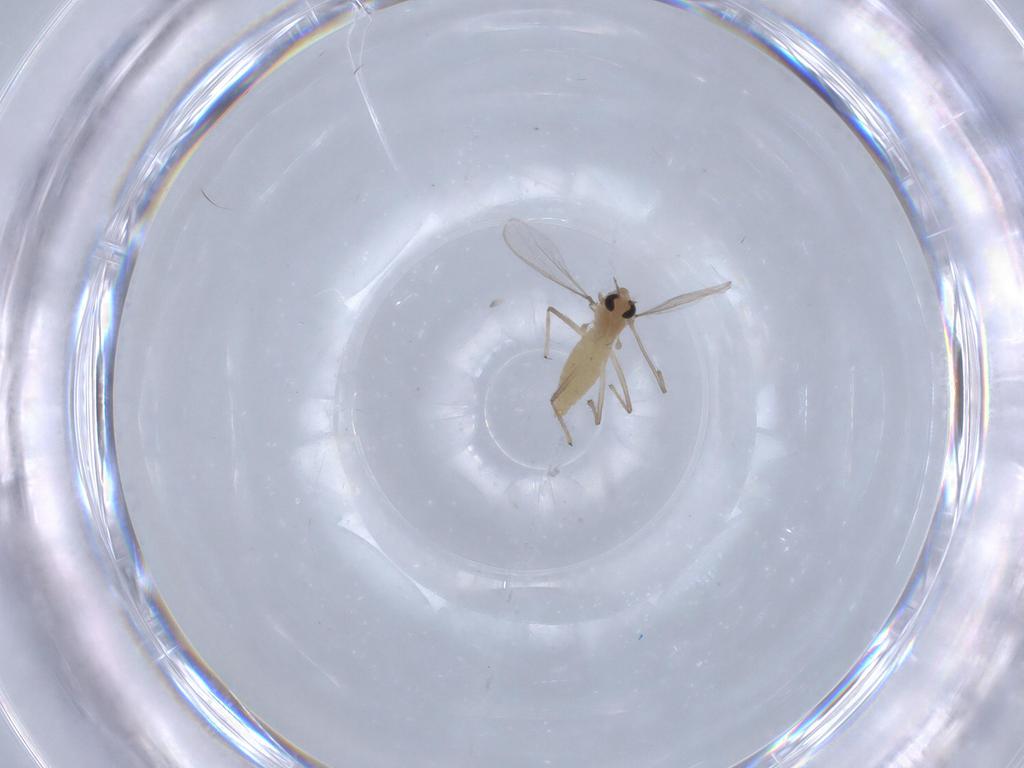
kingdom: Animalia
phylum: Arthropoda
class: Insecta
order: Diptera
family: Chironomidae
